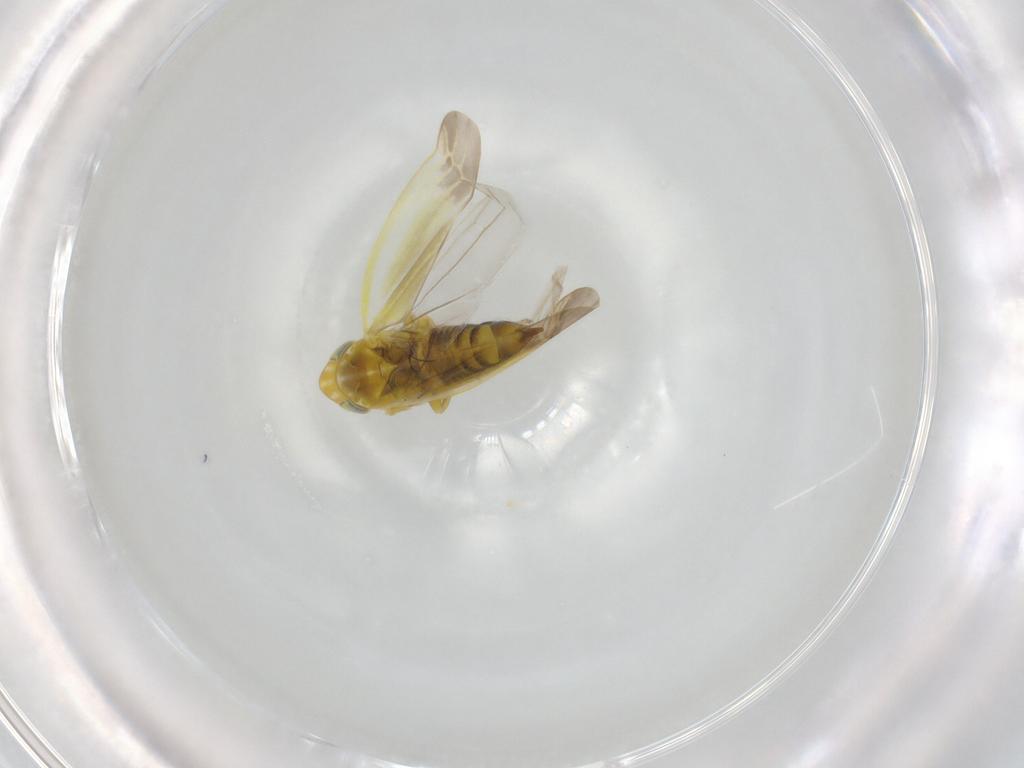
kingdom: Animalia
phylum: Arthropoda
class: Insecta
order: Hemiptera
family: Cicadellidae
